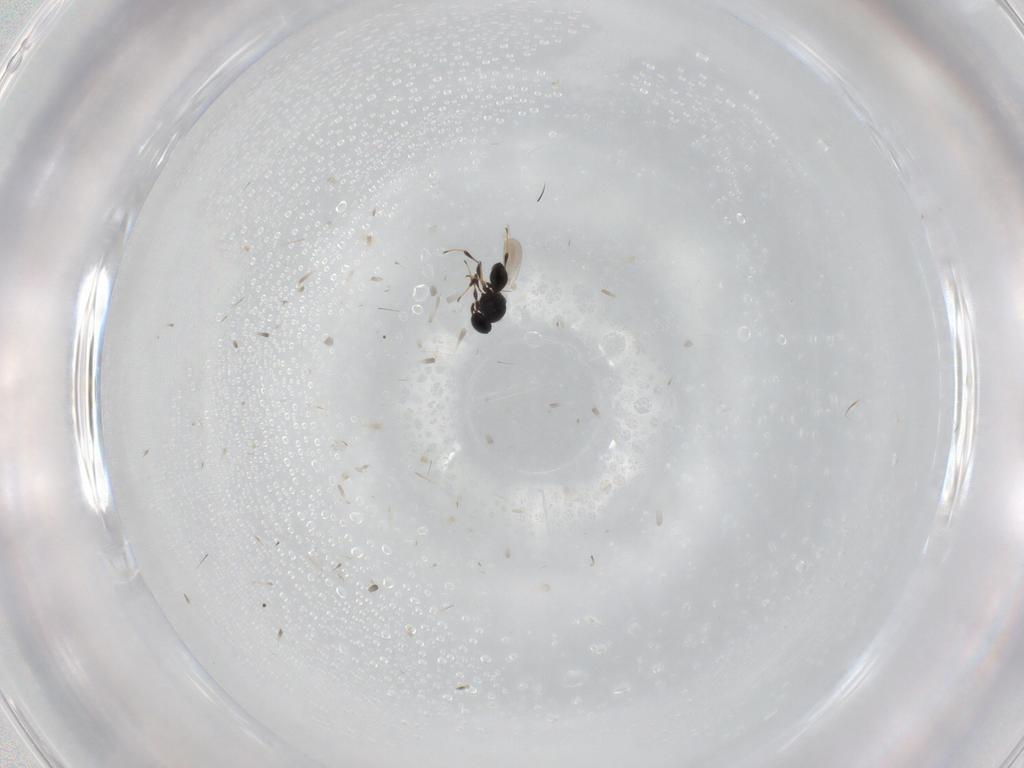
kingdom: Animalia
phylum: Arthropoda
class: Insecta
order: Hymenoptera
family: Platygastridae
